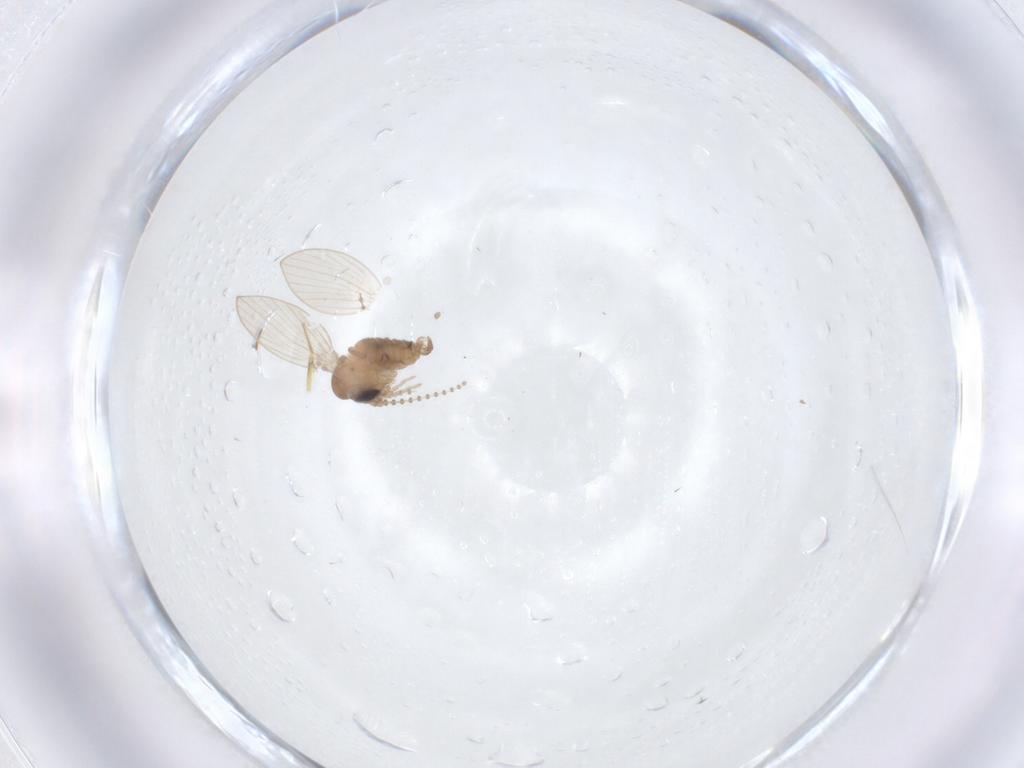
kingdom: Animalia
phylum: Arthropoda
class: Insecta
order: Diptera
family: Psychodidae
